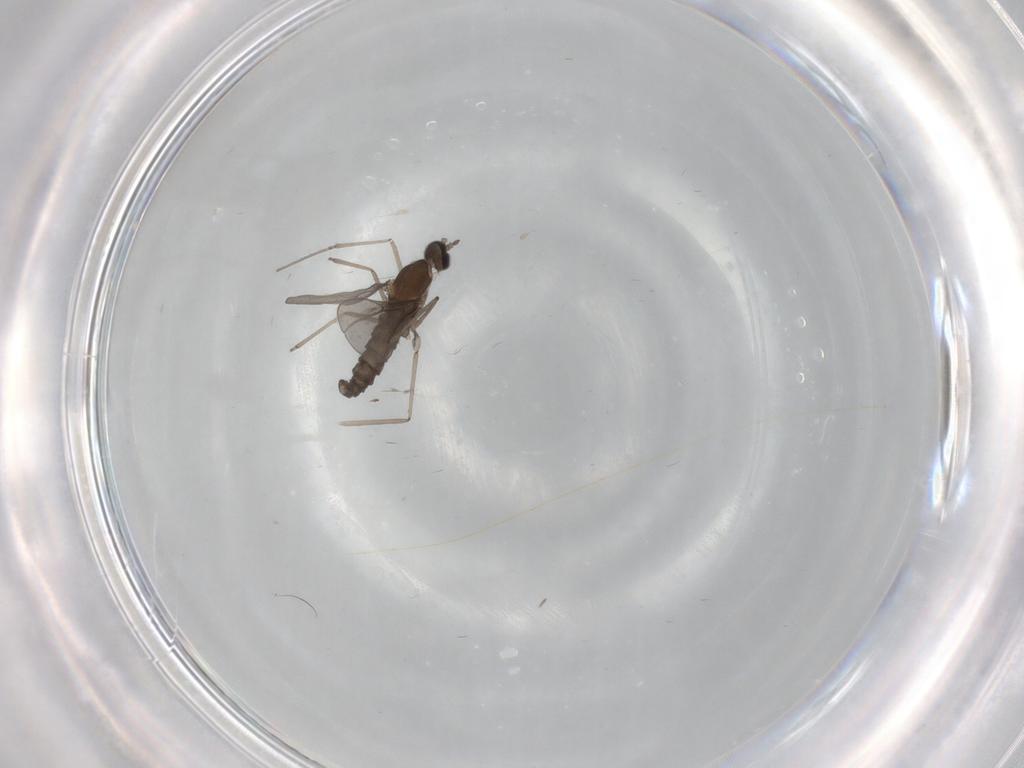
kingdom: Animalia
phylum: Arthropoda
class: Insecta
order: Diptera
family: Cecidomyiidae
